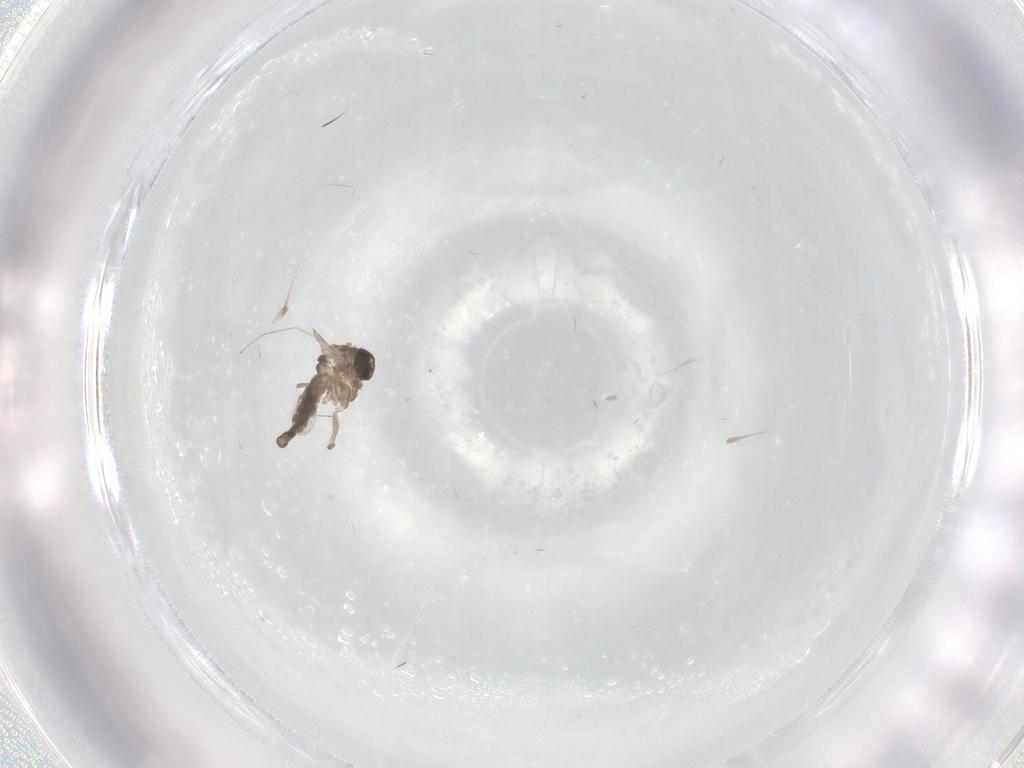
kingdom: Animalia
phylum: Arthropoda
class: Insecta
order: Diptera
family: Ceratopogonidae
